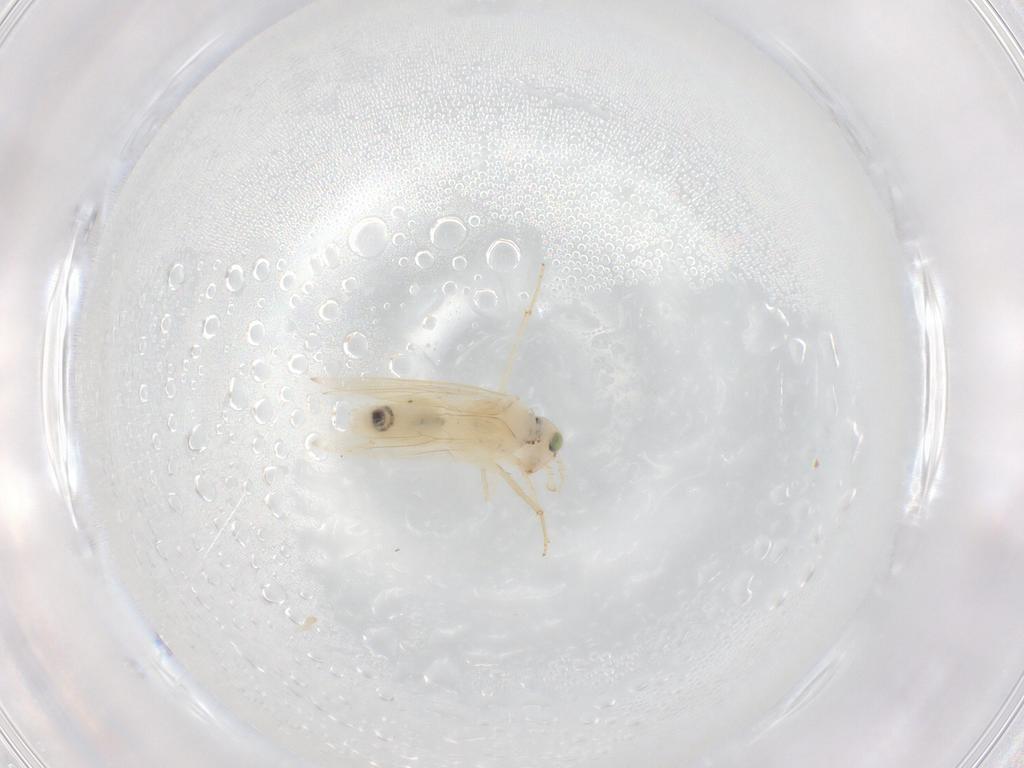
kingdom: Animalia
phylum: Arthropoda
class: Insecta
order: Psocodea
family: Lepidopsocidae
